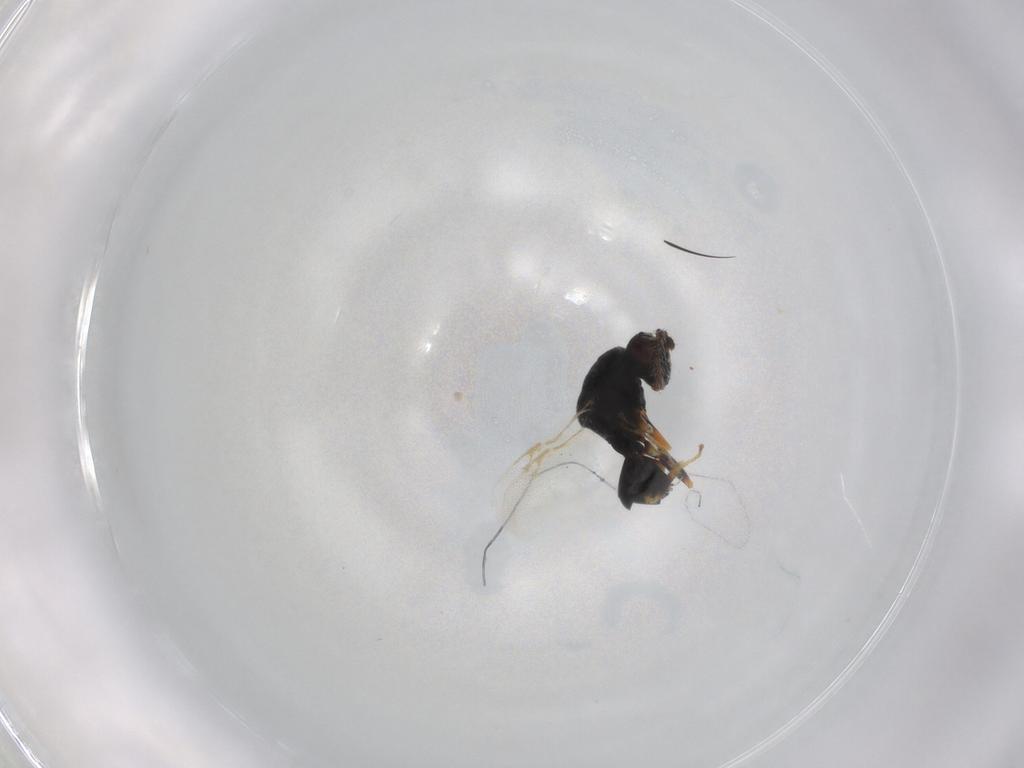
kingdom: Animalia
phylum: Arthropoda
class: Insecta
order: Hymenoptera
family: Eurytomidae
